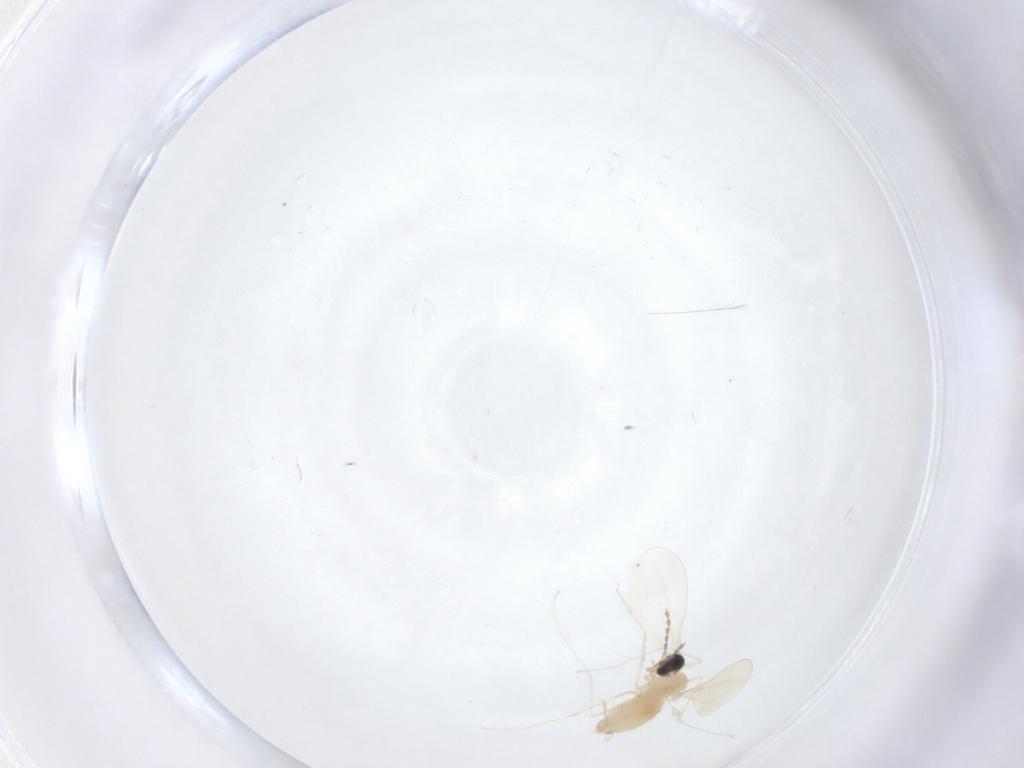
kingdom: Animalia
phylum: Arthropoda
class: Insecta
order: Diptera
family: Cecidomyiidae
